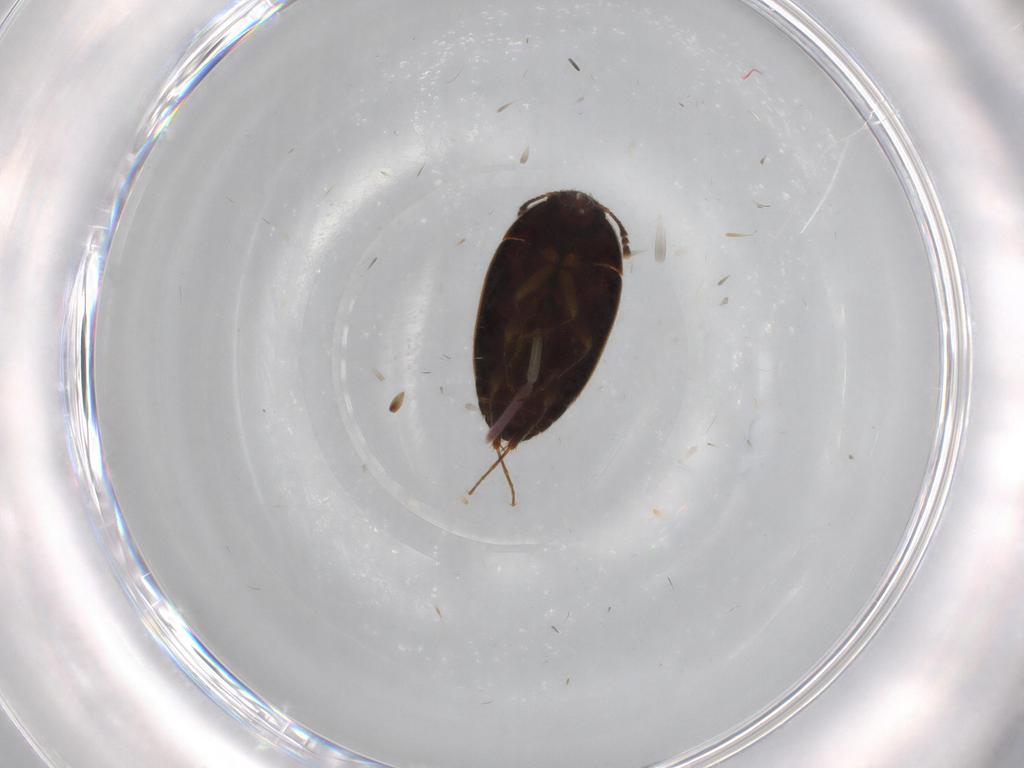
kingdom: Animalia
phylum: Arthropoda
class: Insecta
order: Coleoptera
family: Mycetophagidae
